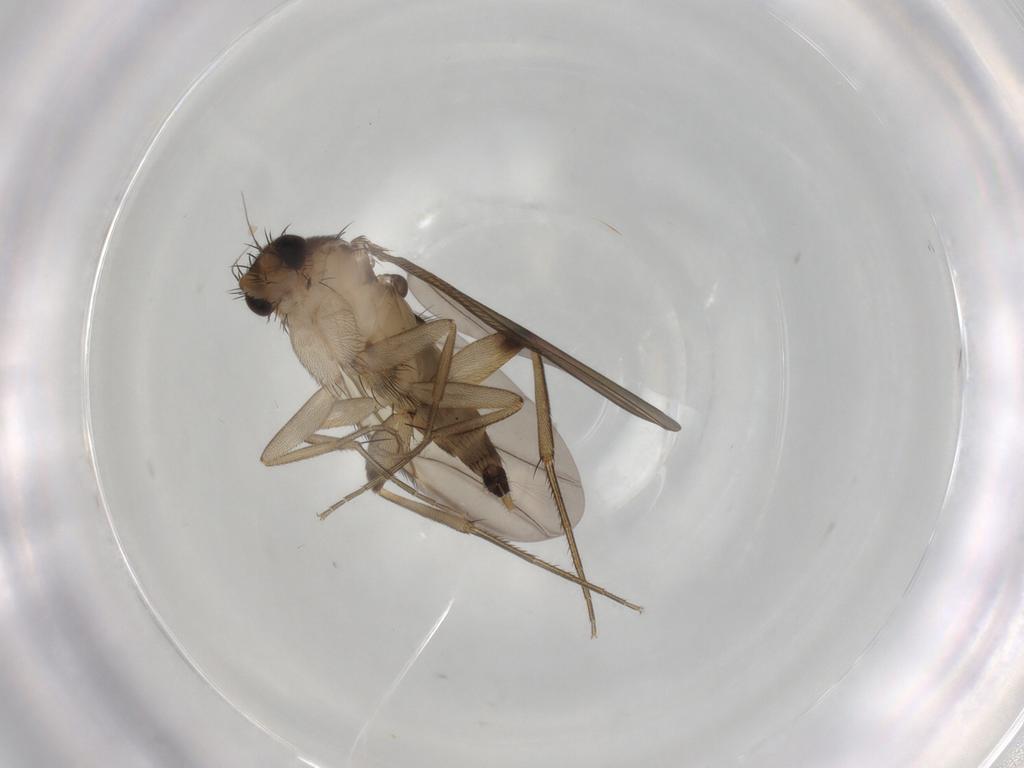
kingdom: Animalia
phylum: Arthropoda
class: Insecta
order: Diptera
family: Phoridae
